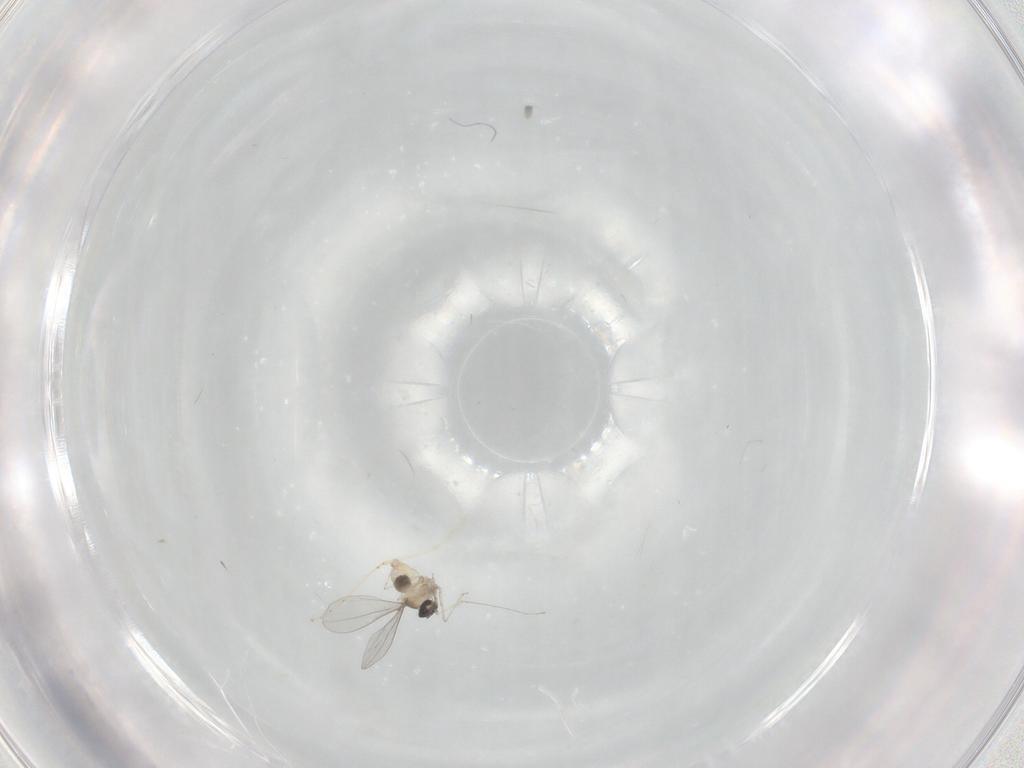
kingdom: Animalia
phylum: Arthropoda
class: Insecta
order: Diptera
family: Cecidomyiidae
